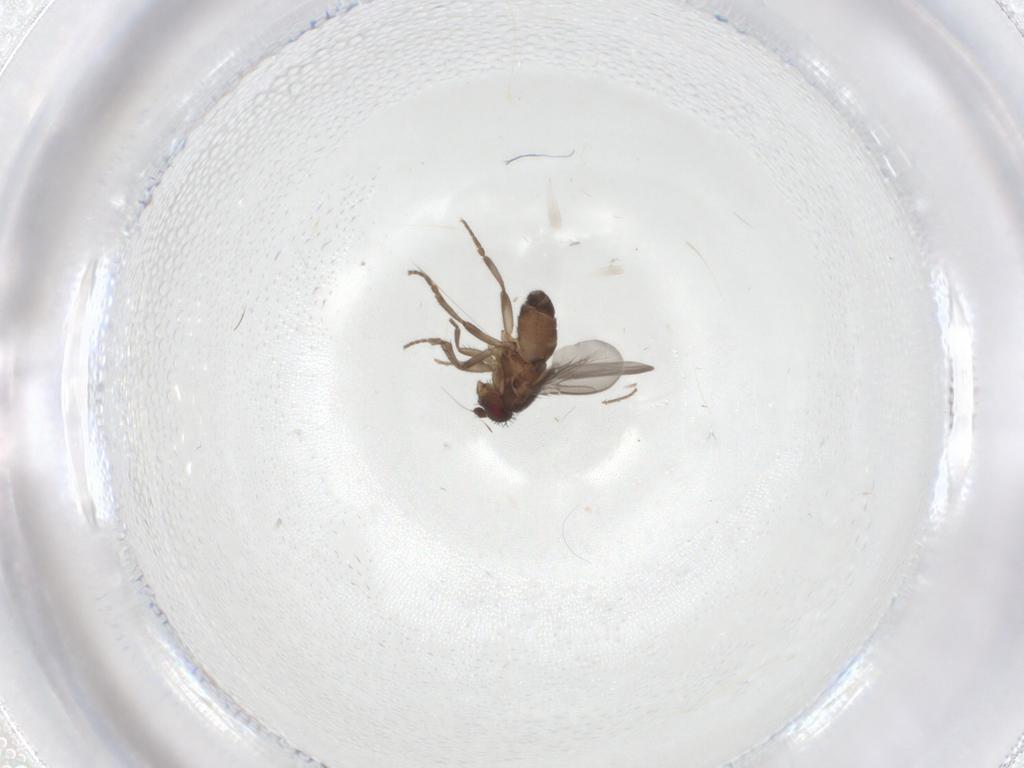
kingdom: Animalia
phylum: Arthropoda
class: Insecta
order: Diptera
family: Sphaeroceridae
